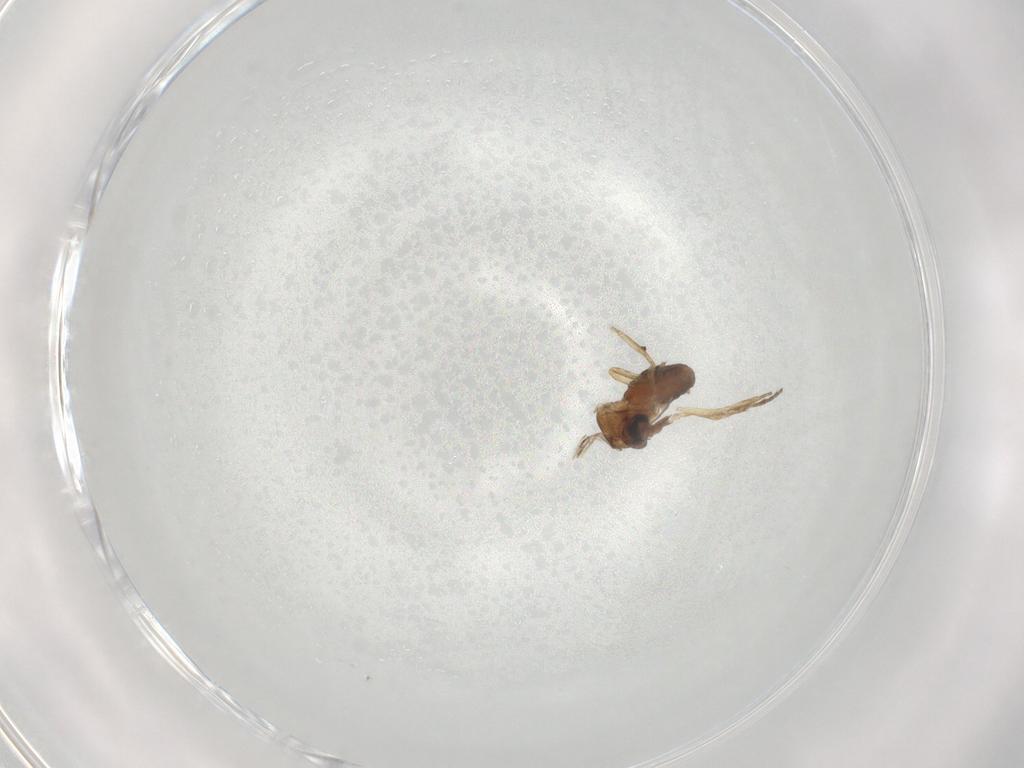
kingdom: Animalia
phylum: Arthropoda
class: Insecta
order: Diptera
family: Ceratopogonidae
